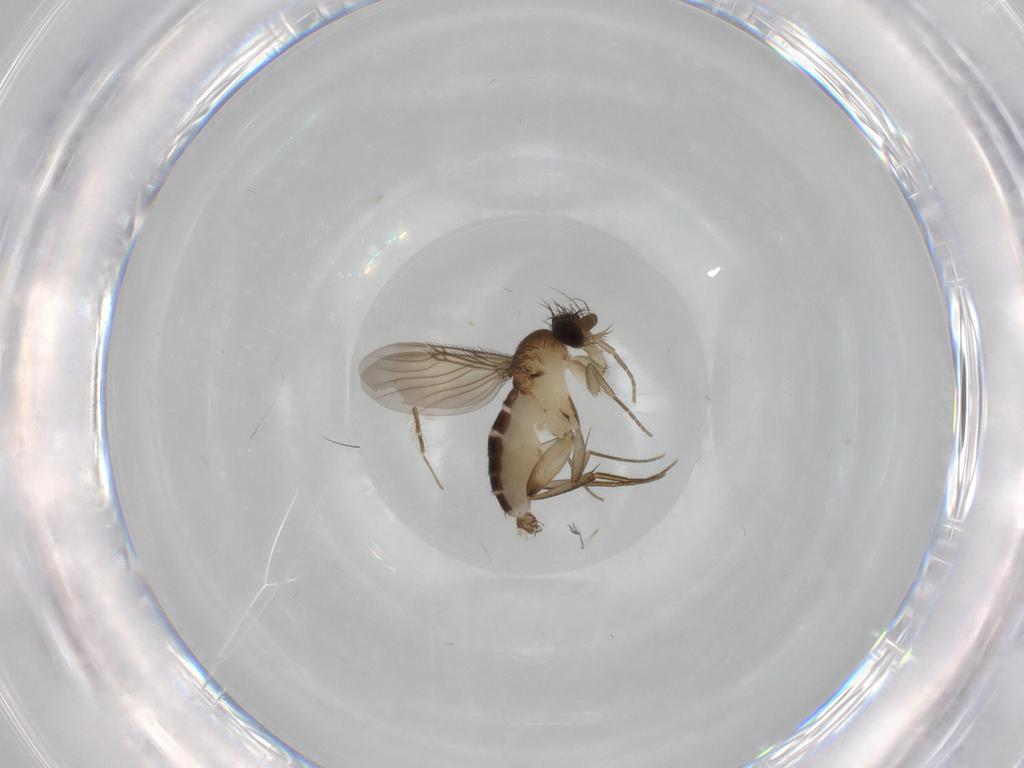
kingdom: Animalia
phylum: Arthropoda
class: Insecta
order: Diptera
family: Phoridae
